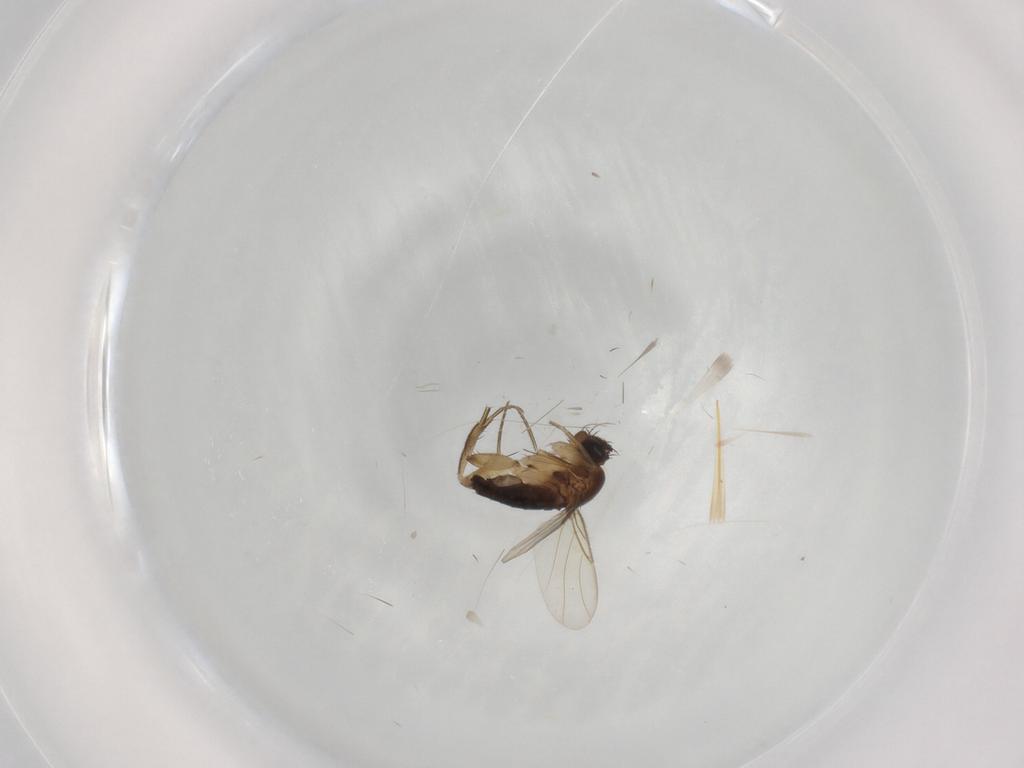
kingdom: Animalia
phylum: Arthropoda
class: Insecta
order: Diptera
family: Phoridae
